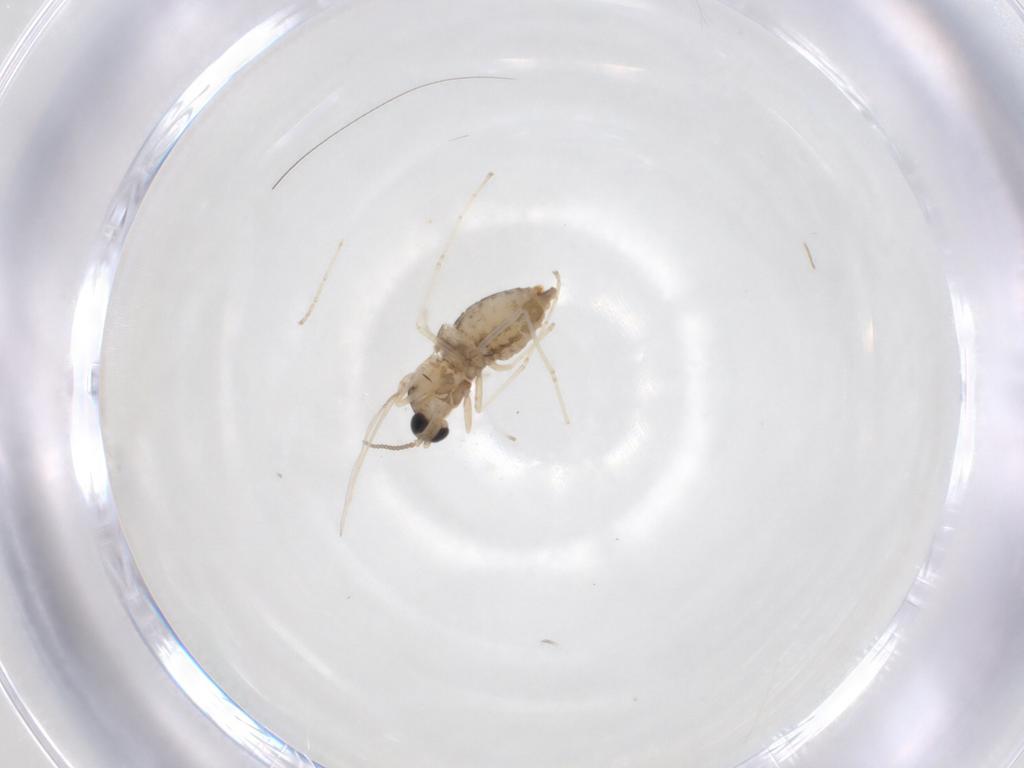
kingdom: Animalia
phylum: Arthropoda
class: Insecta
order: Diptera
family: Cecidomyiidae
